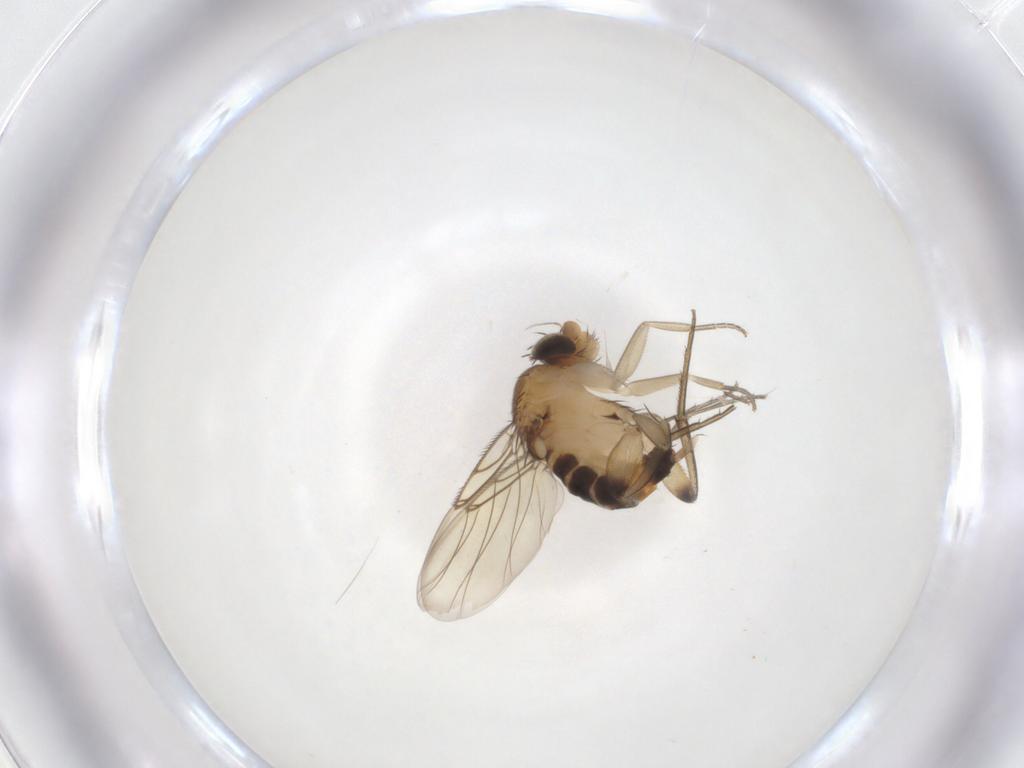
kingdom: Animalia
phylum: Arthropoda
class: Insecta
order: Diptera
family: Phoridae
